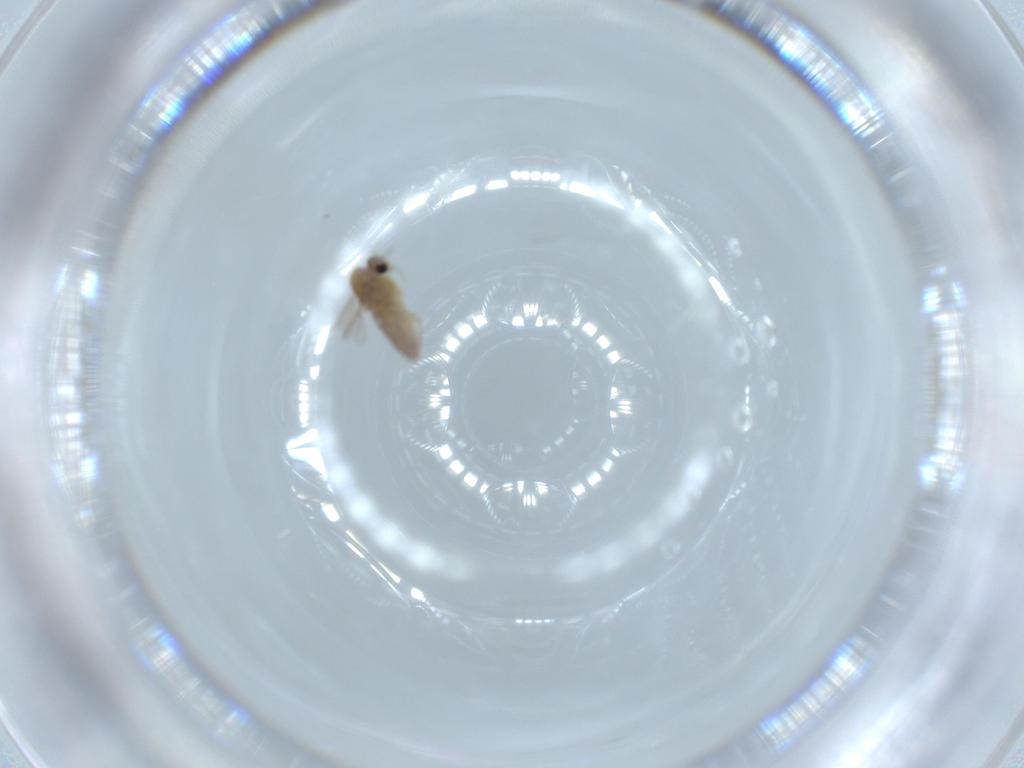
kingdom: Animalia
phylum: Arthropoda
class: Insecta
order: Diptera
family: Chironomidae
